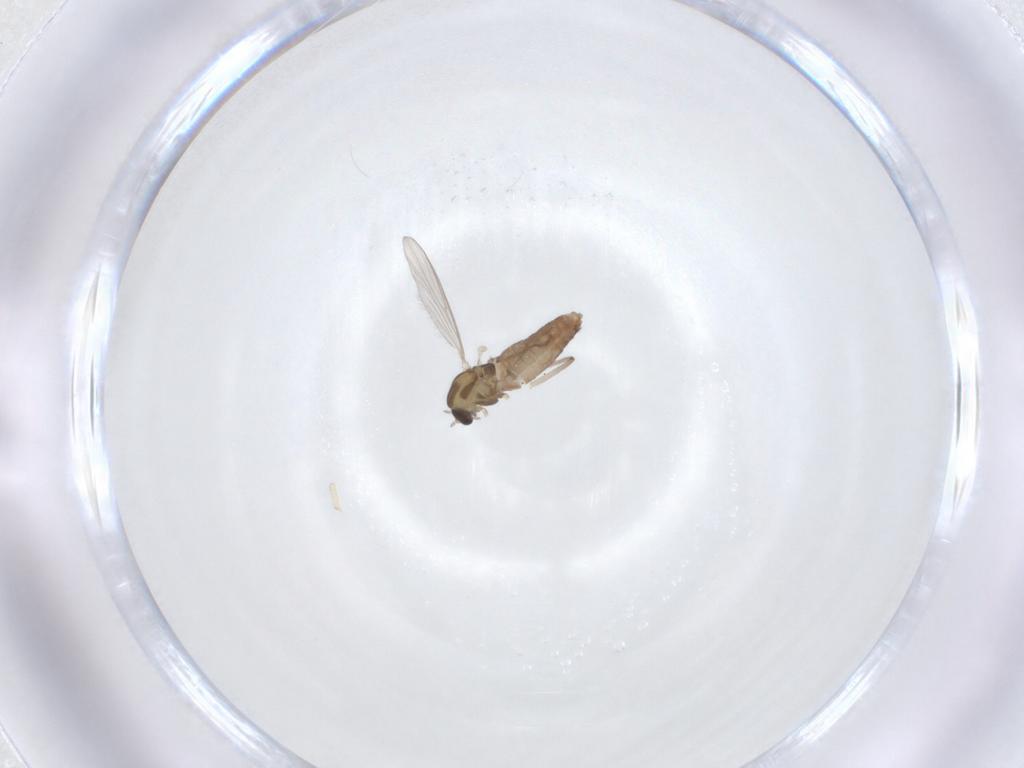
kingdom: Animalia
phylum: Arthropoda
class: Insecta
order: Diptera
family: Chironomidae
